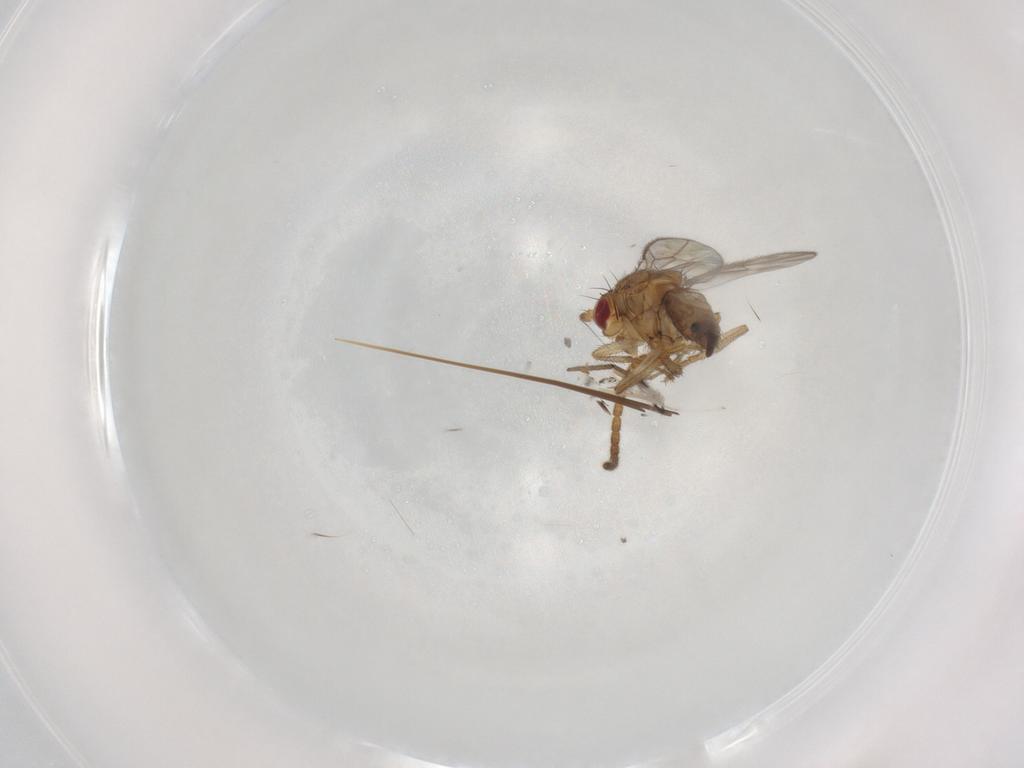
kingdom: Animalia
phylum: Arthropoda
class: Insecta
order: Diptera
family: Sphaeroceridae
